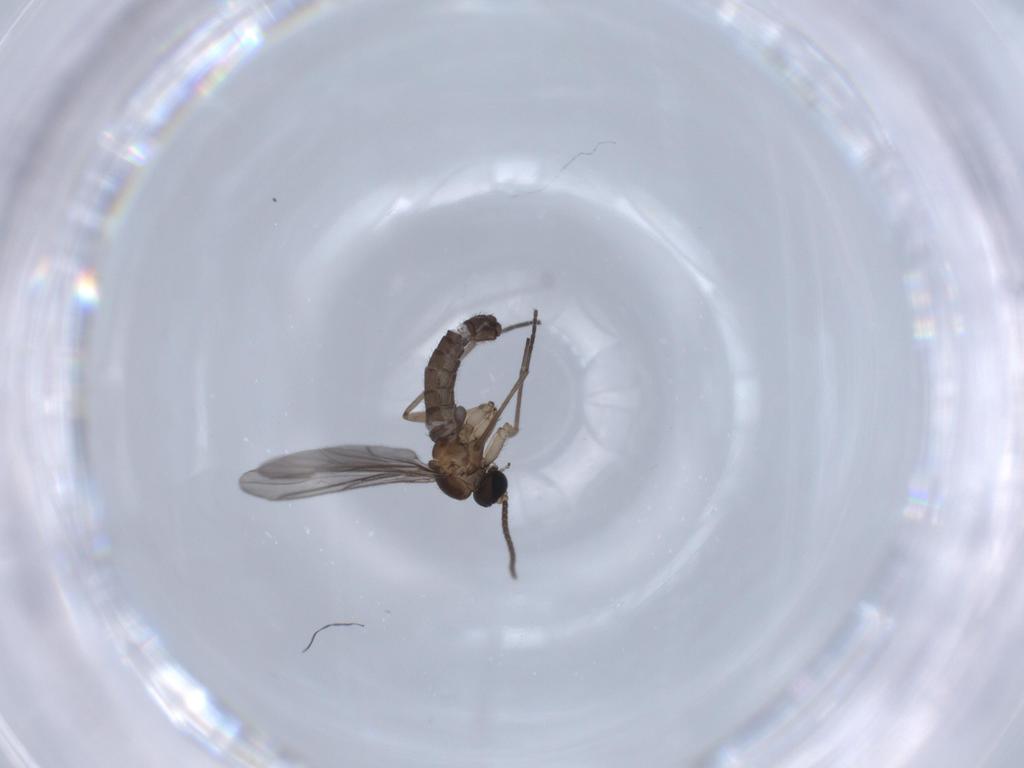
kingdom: Animalia
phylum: Arthropoda
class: Insecta
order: Diptera
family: Sciaridae
